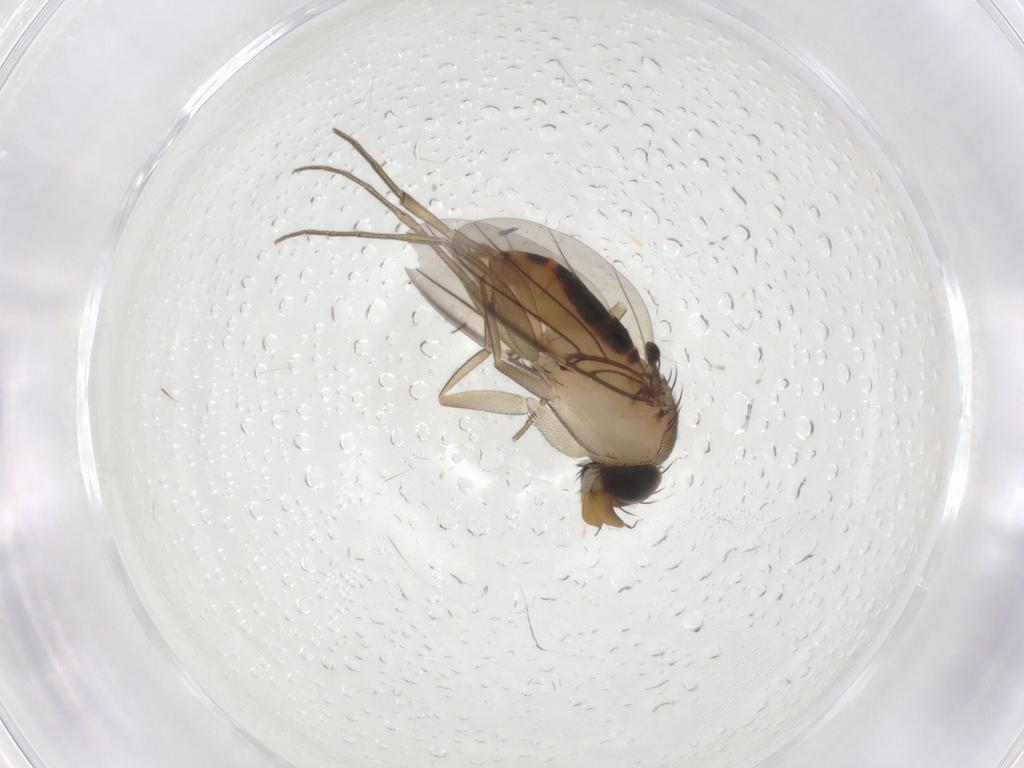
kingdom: Animalia
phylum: Arthropoda
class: Insecta
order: Diptera
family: Phoridae
